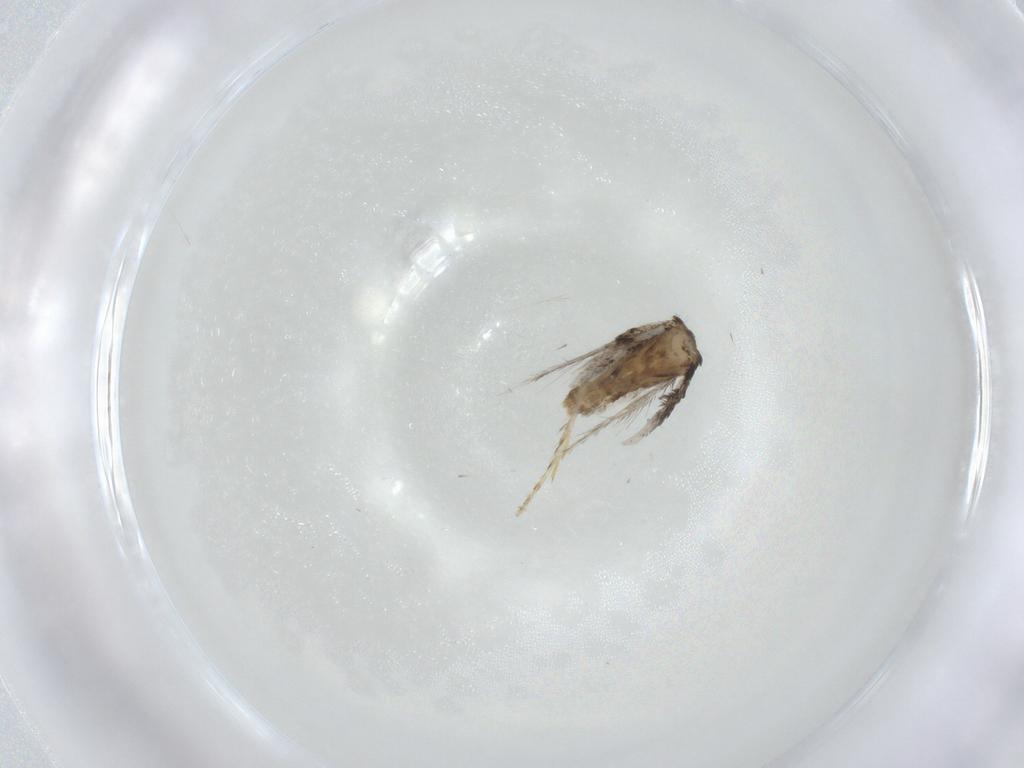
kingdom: Animalia
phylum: Arthropoda
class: Insecta
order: Lepidoptera
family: Nepticulidae
